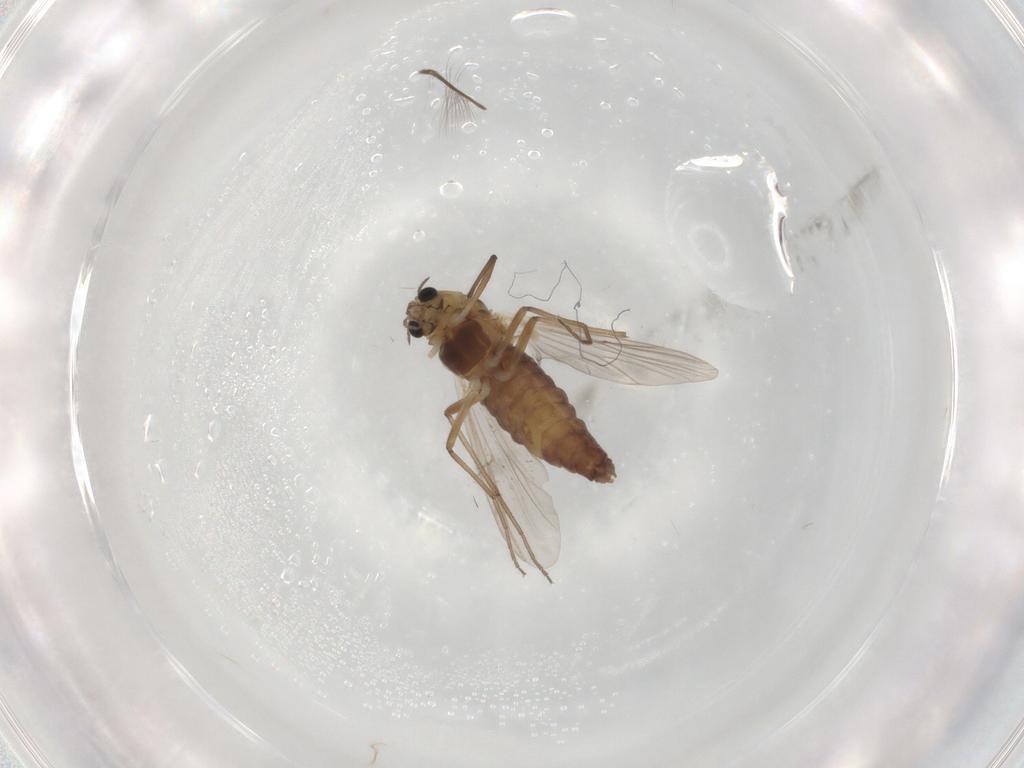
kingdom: Animalia
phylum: Arthropoda
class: Insecta
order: Diptera
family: Chironomidae
